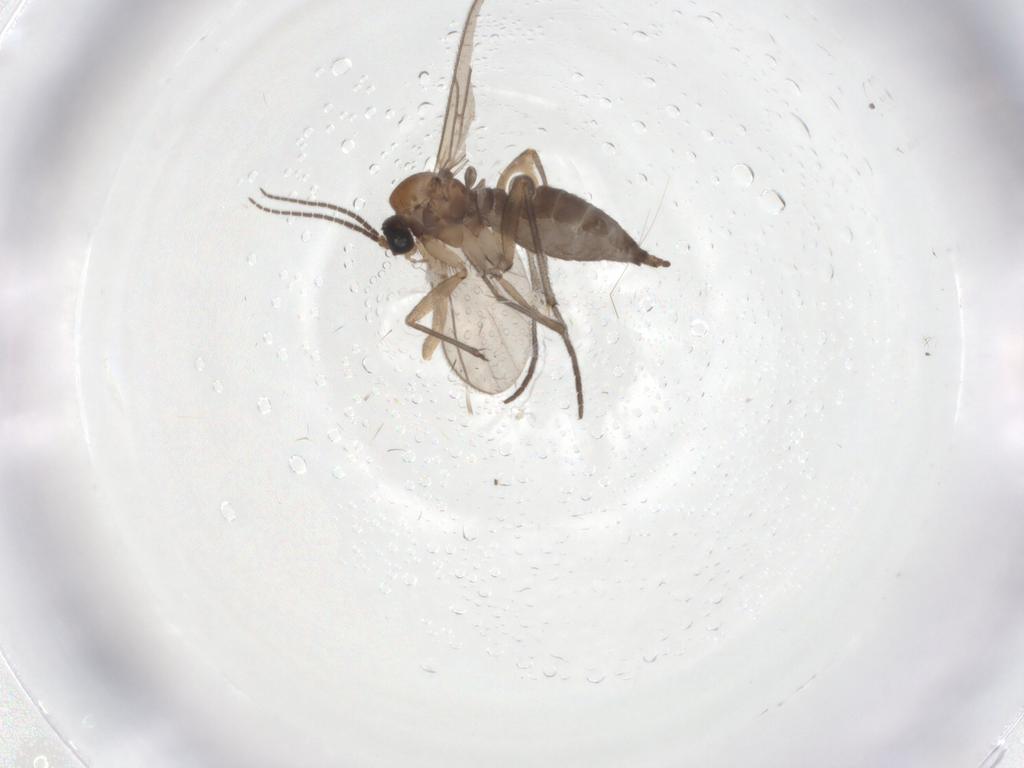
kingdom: Animalia
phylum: Arthropoda
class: Insecta
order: Diptera
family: Sciaridae
